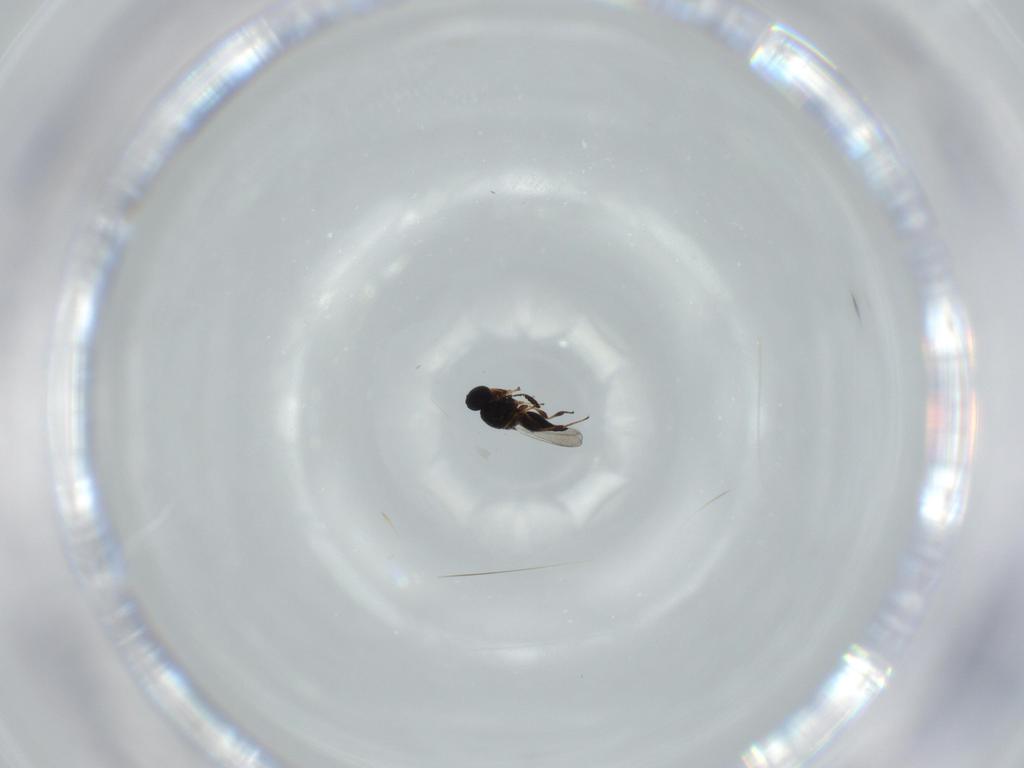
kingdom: Animalia
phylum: Arthropoda
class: Insecta
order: Hymenoptera
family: Platygastridae
